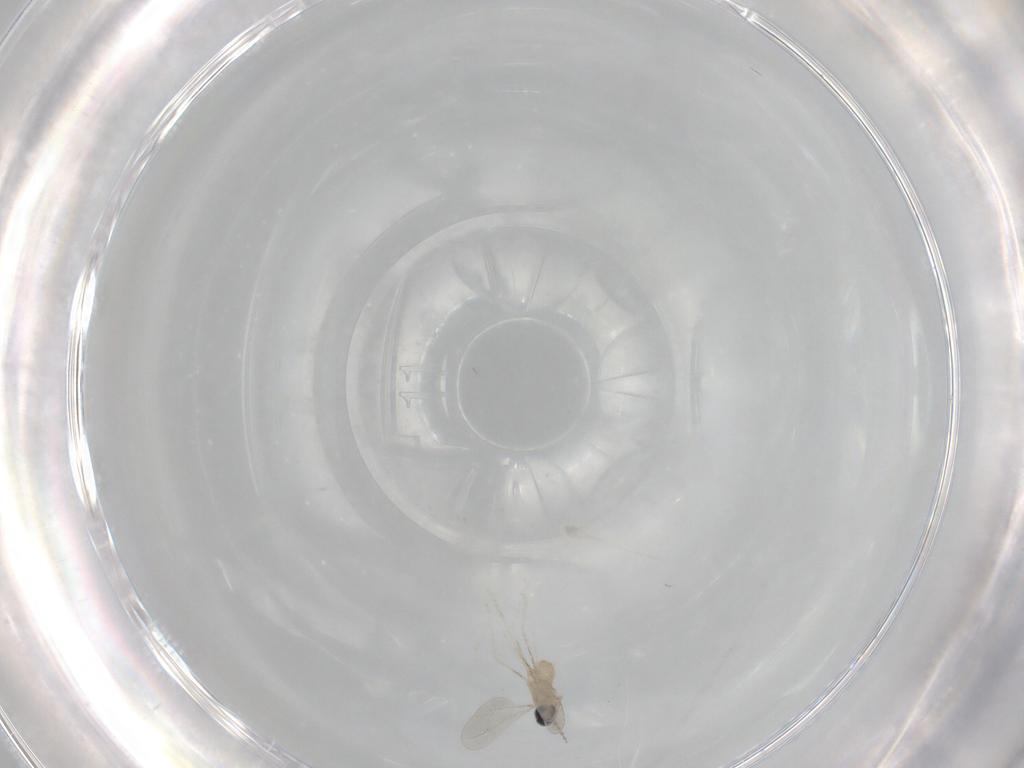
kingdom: Animalia
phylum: Arthropoda
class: Insecta
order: Diptera
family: Cecidomyiidae
